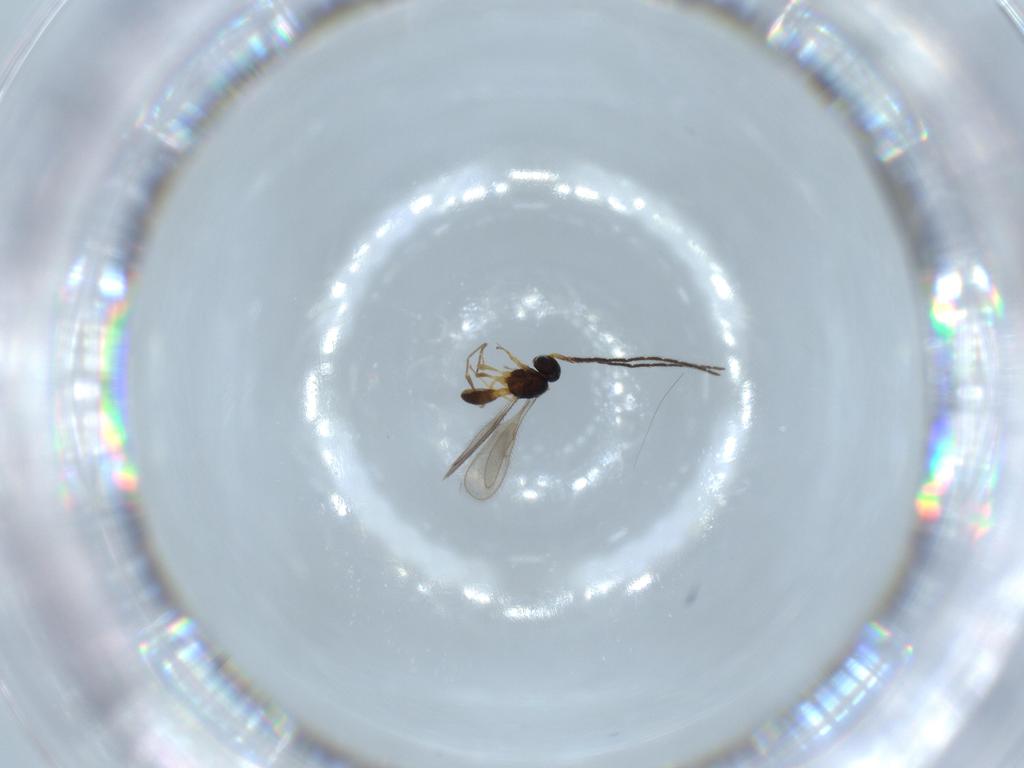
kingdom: Animalia
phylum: Arthropoda
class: Insecta
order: Hymenoptera
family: Scelionidae
